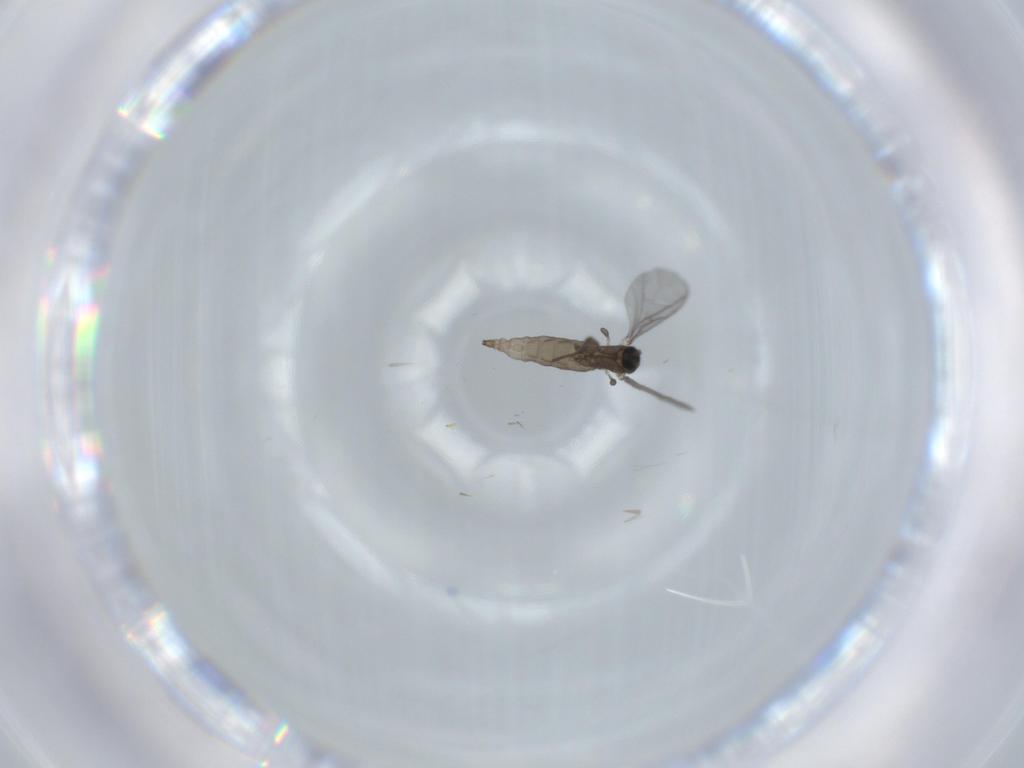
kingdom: Animalia
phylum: Arthropoda
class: Insecta
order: Diptera
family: Sciaridae
